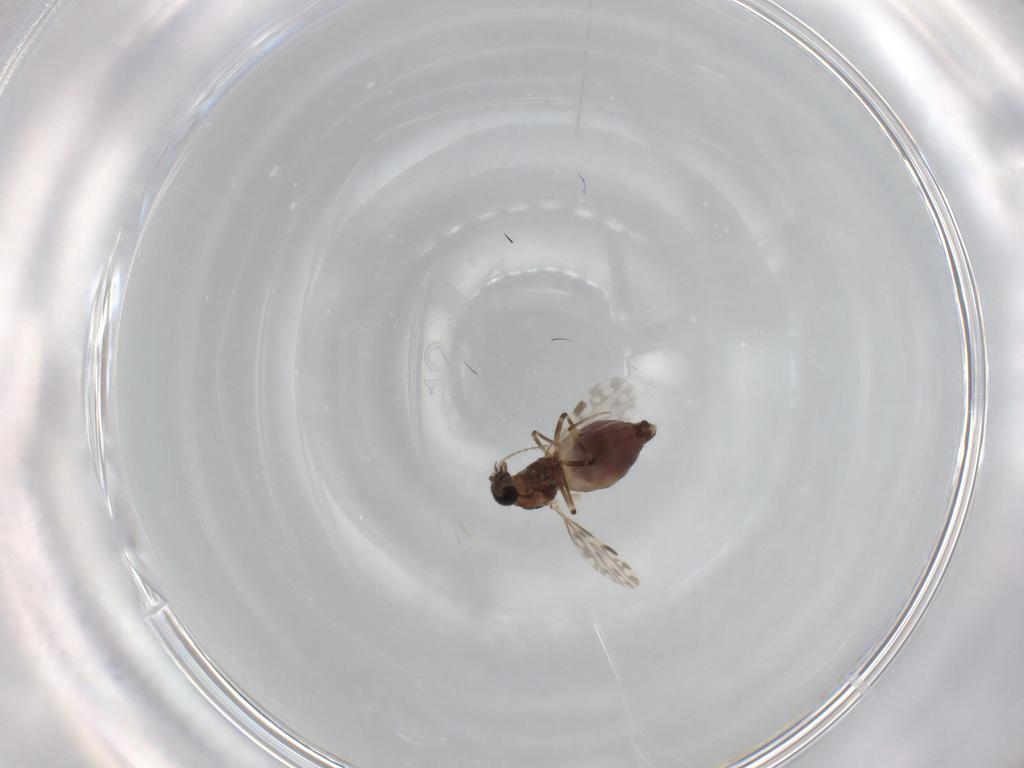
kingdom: Animalia
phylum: Arthropoda
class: Insecta
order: Diptera
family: Ceratopogonidae
